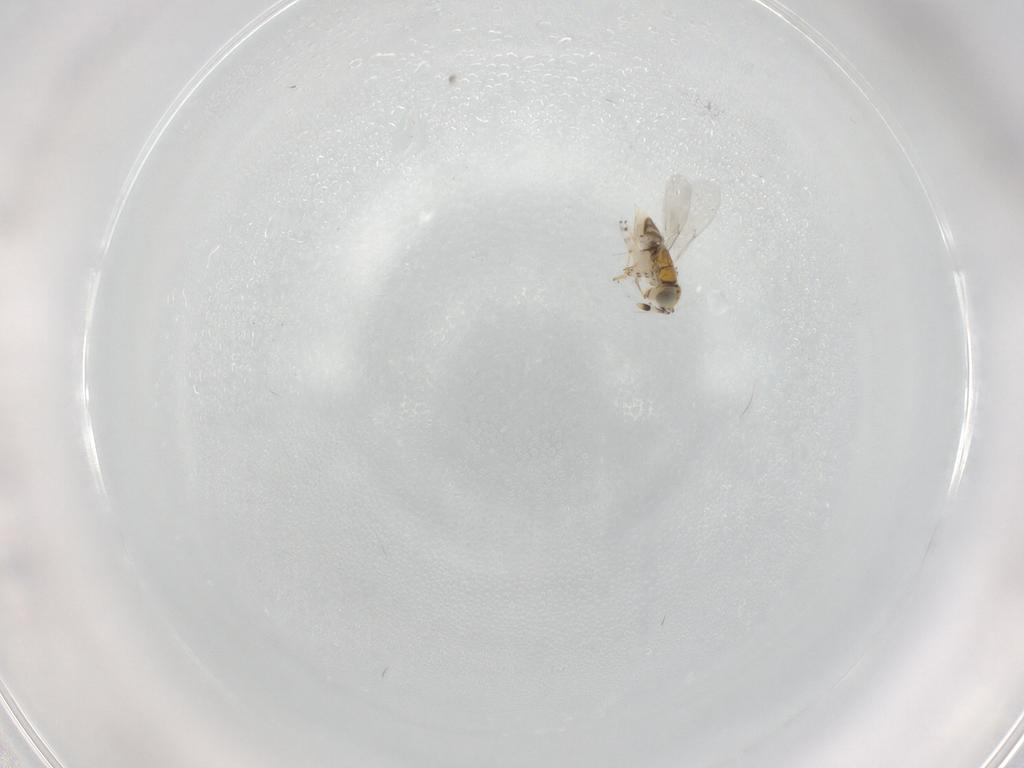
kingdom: Animalia
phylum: Arthropoda
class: Insecta
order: Hymenoptera
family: Encyrtidae
